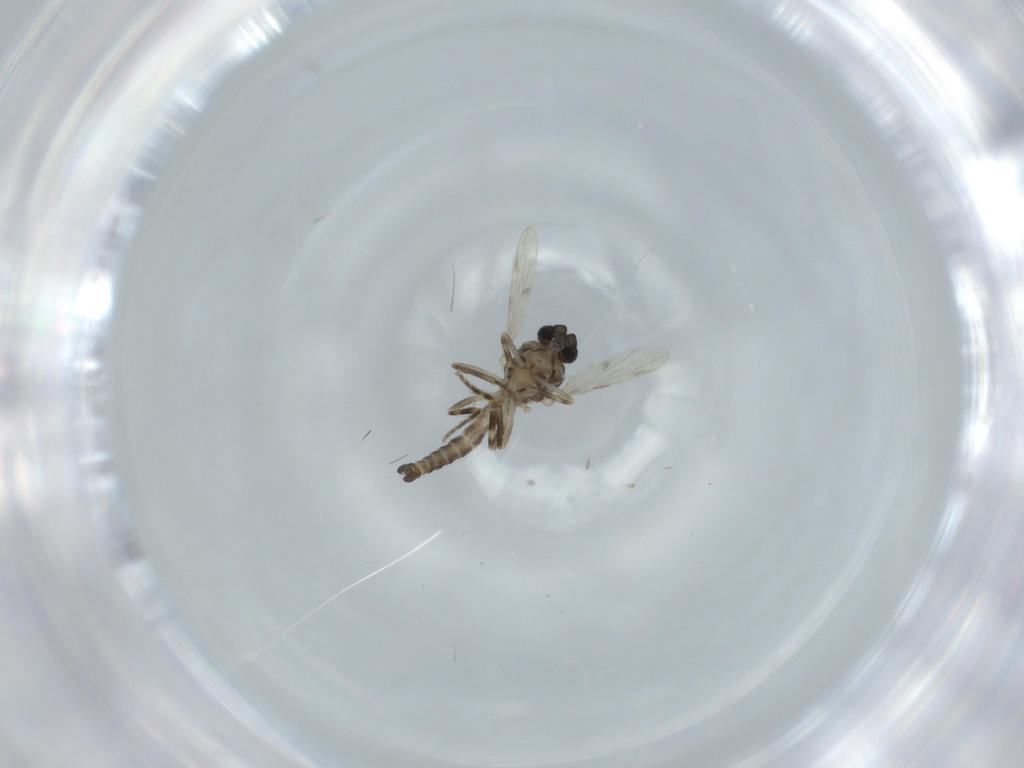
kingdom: Animalia
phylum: Arthropoda
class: Insecta
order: Diptera
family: Ceratopogonidae
